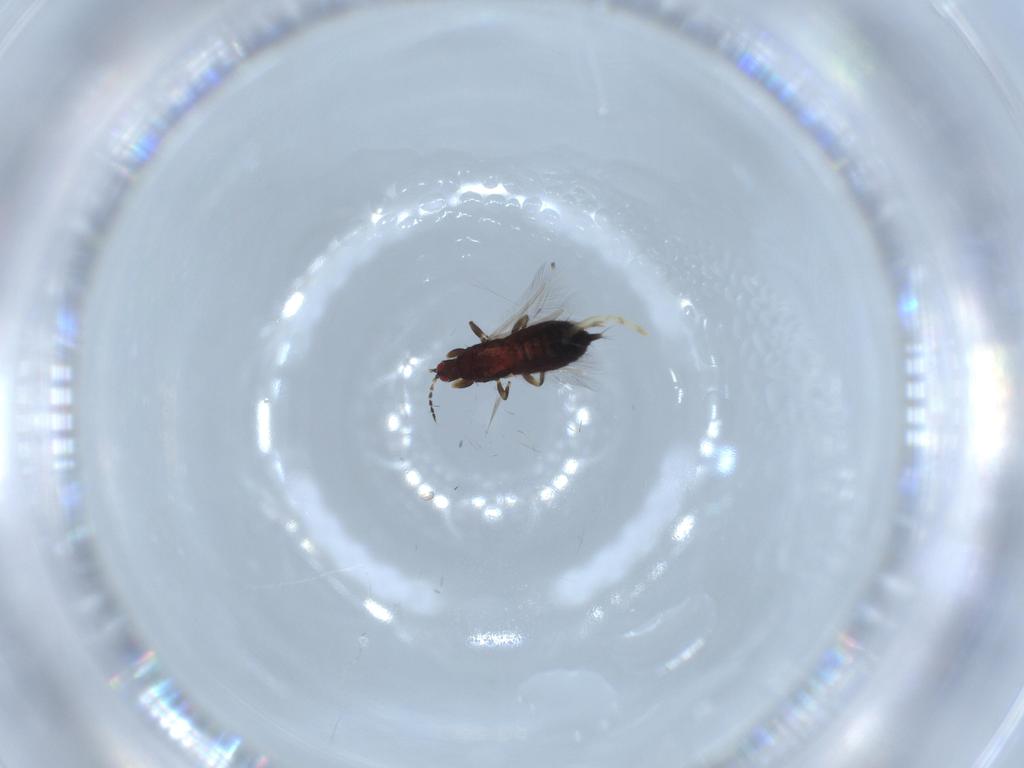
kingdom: Animalia
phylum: Arthropoda
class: Insecta
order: Thysanoptera
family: Phlaeothripidae
